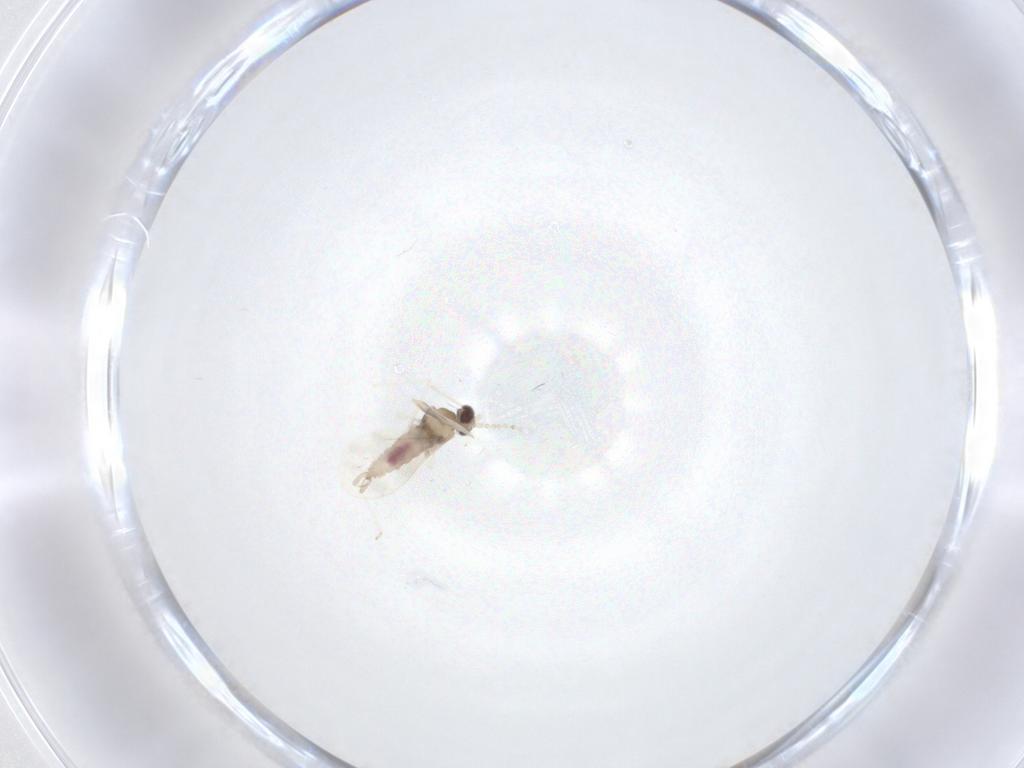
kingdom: Animalia
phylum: Arthropoda
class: Insecta
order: Diptera
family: Cecidomyiidae
